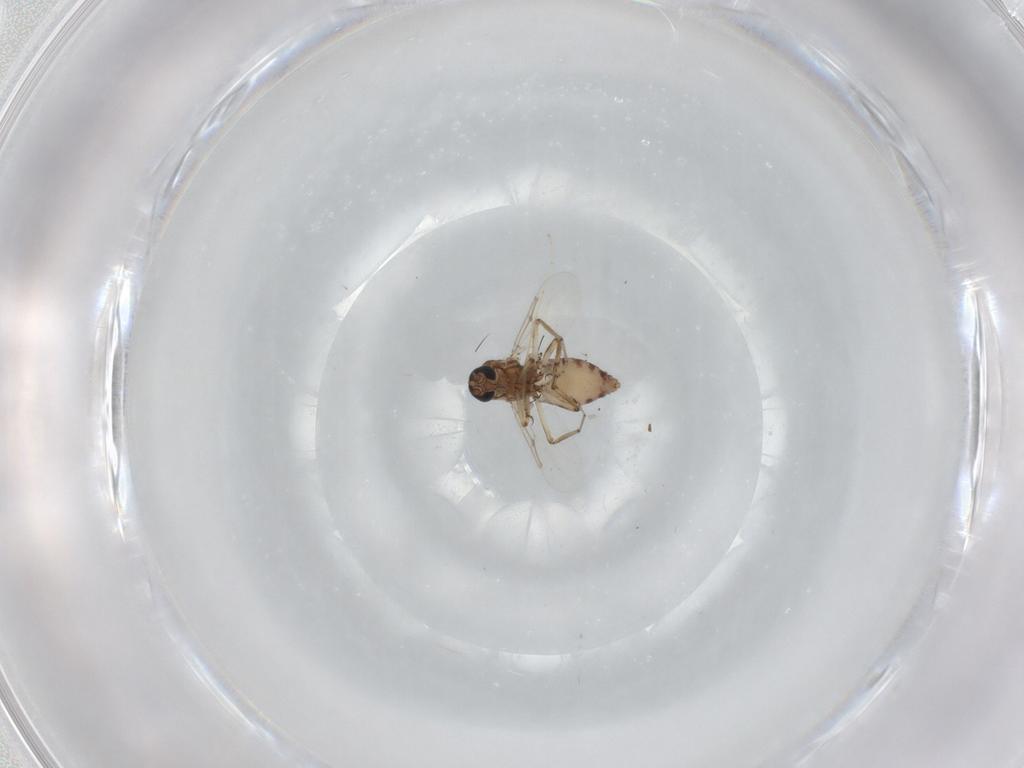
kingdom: Animalia
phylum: Arthropoda
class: Insecta
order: Diptera
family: Ceratopogonidae
